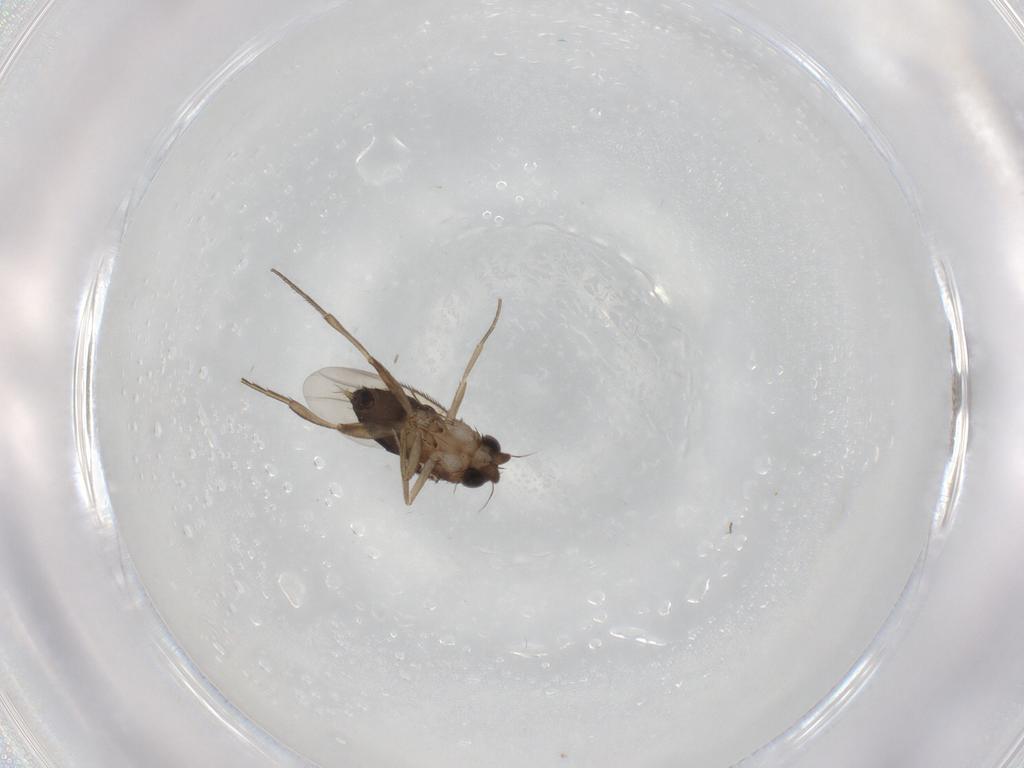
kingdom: Animalia
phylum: Arthropoda
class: Insecta
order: Diptera
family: Phoridae
